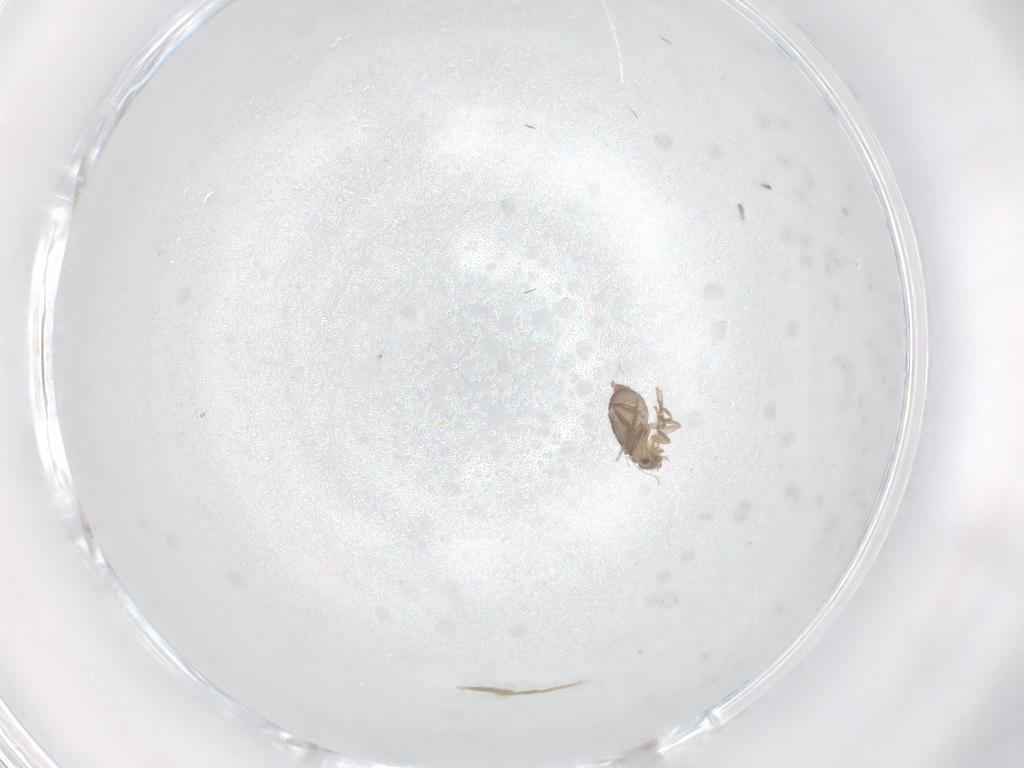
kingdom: Animalia
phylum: Arthropoda
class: Insecta
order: Diptera
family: Phoridae
